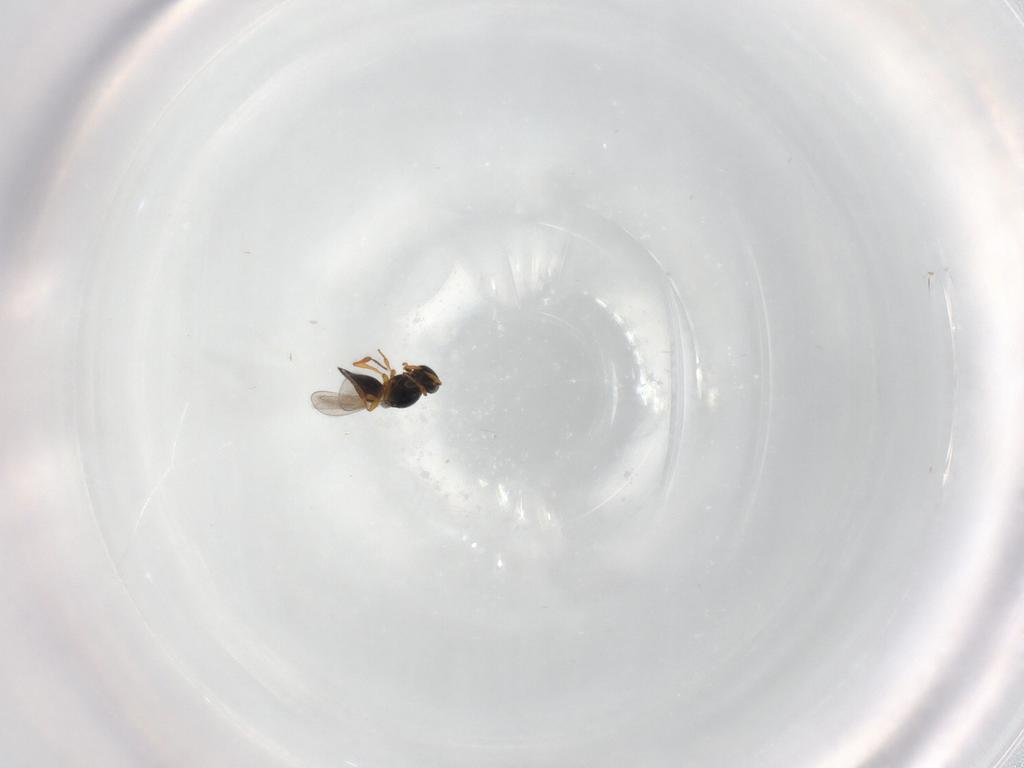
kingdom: Animalia
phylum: Arthropoda
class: Insecta
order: Hymenoptera
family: Platygastridae
